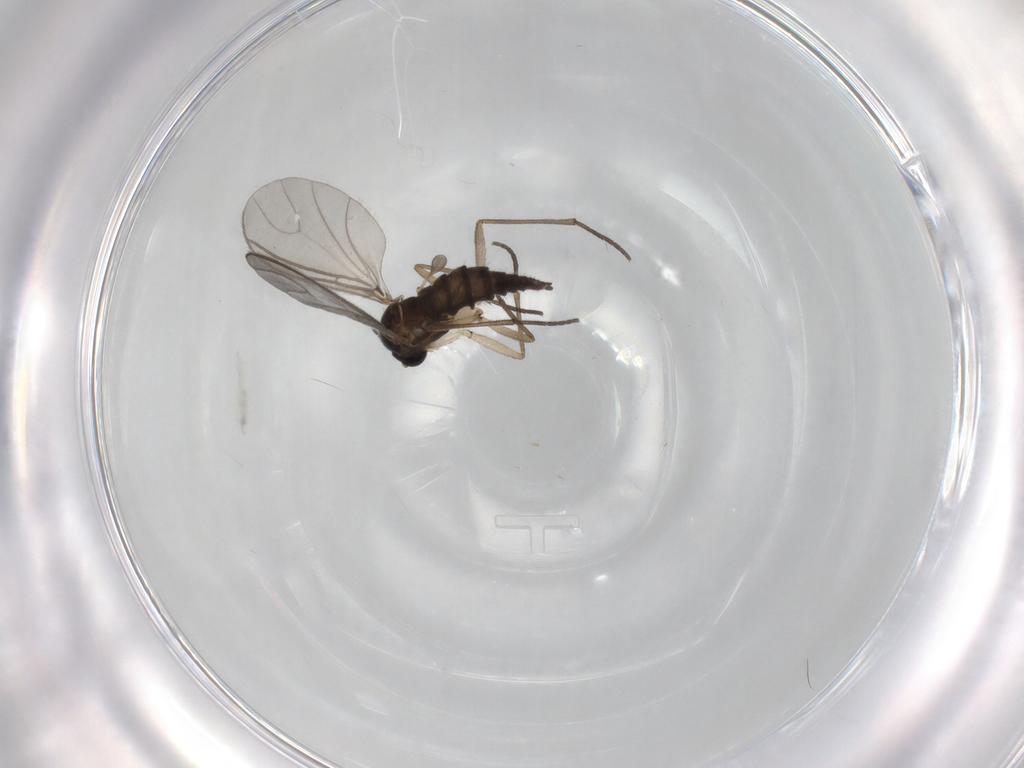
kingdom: Animalia
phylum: Arthropoda
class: Insecta
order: Diptera
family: Sciaridae
